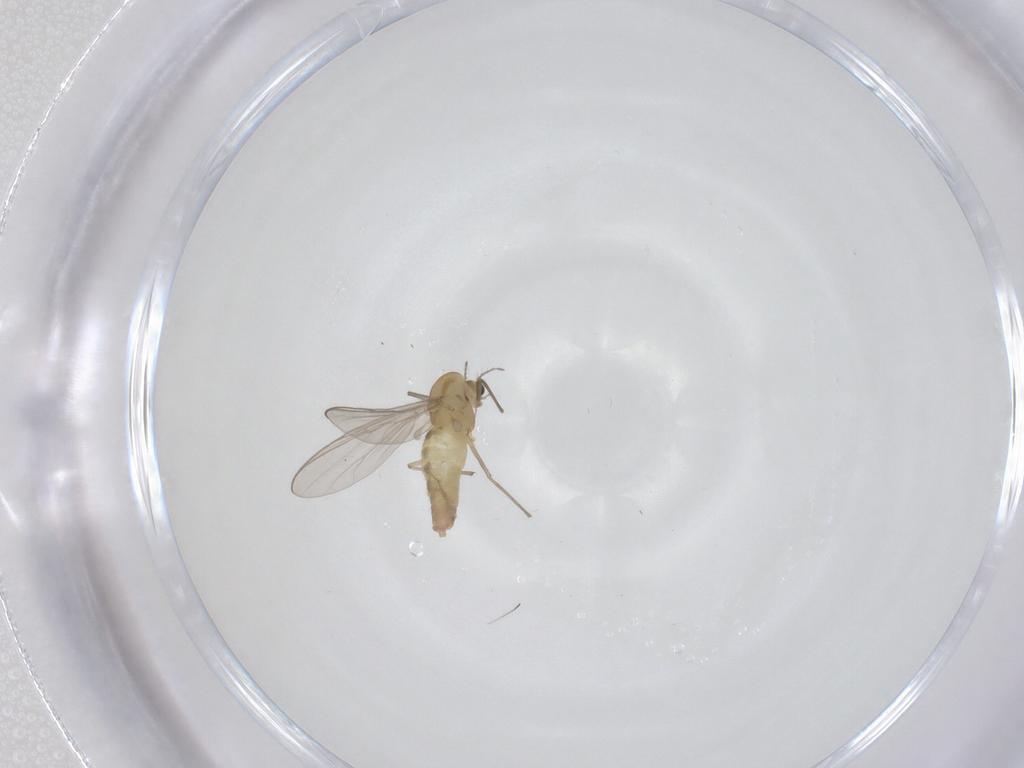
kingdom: Animalia
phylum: Arthropoda
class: Insecta
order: Diptera
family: Chironomidae
